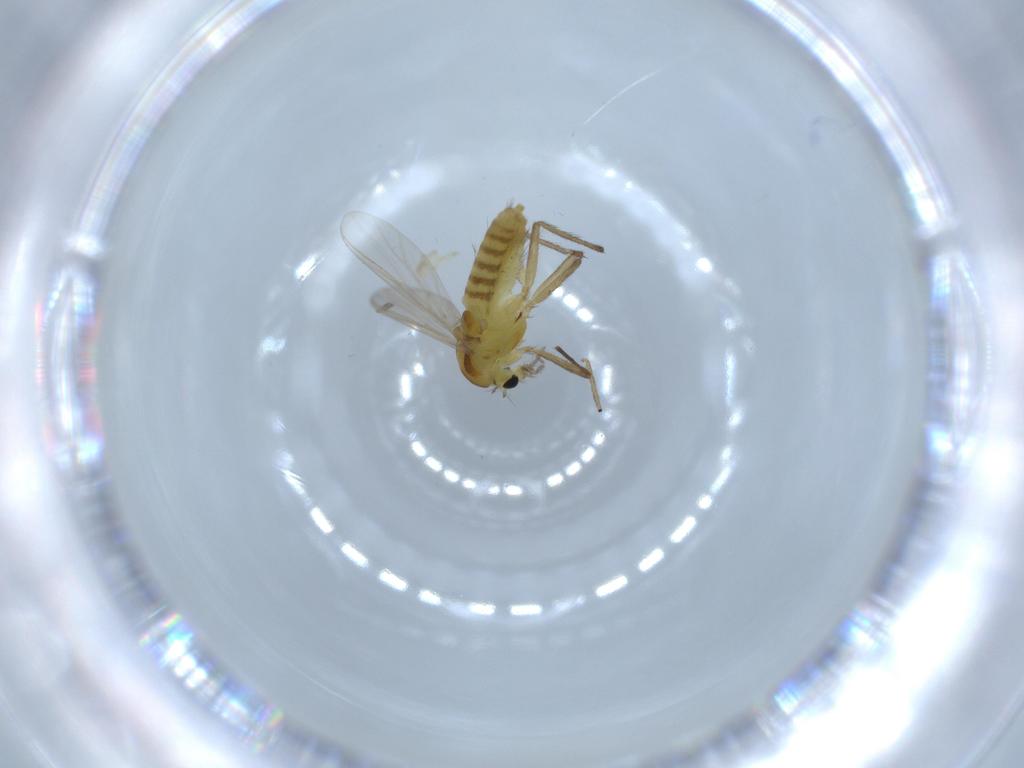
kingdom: Animalia
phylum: Arthropoda
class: Insecta
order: Diptera
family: Chironomidae
